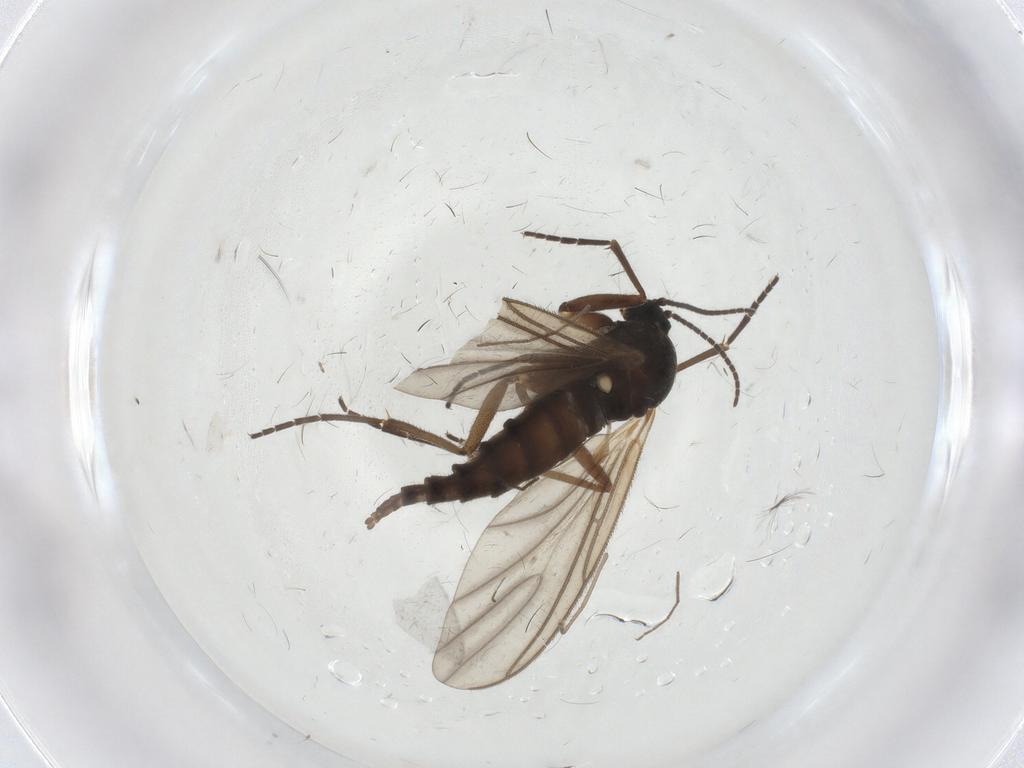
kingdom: Animalia
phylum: Arthropoda
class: Insecta
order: Diptera
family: Sciaridae
